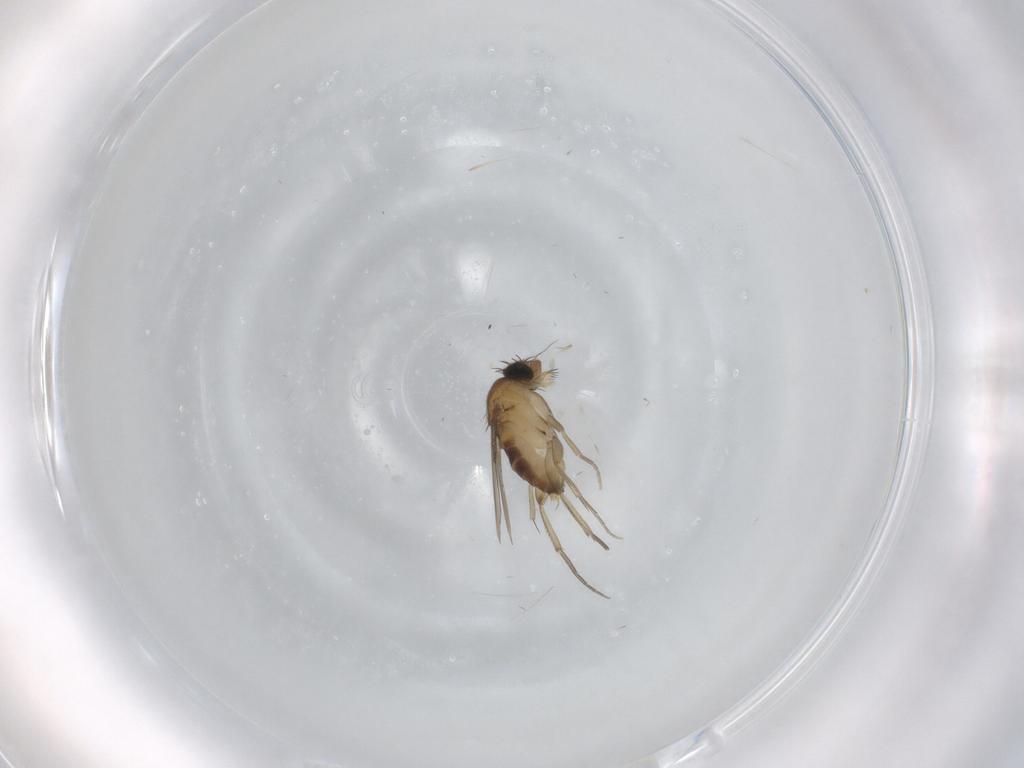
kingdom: Animalia
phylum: Arthropoda
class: Insecta
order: Diptera
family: Phoridae
